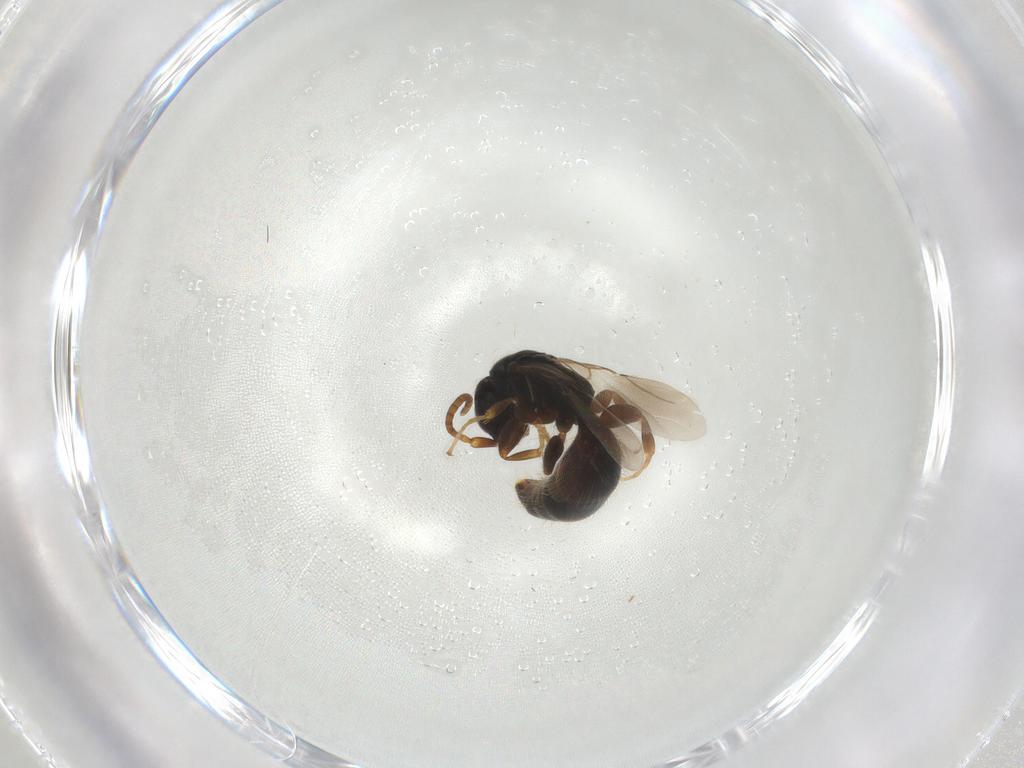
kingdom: Animalia
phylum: Arthropoda
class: Insecta
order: Hymenoptera
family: Bethylidae
